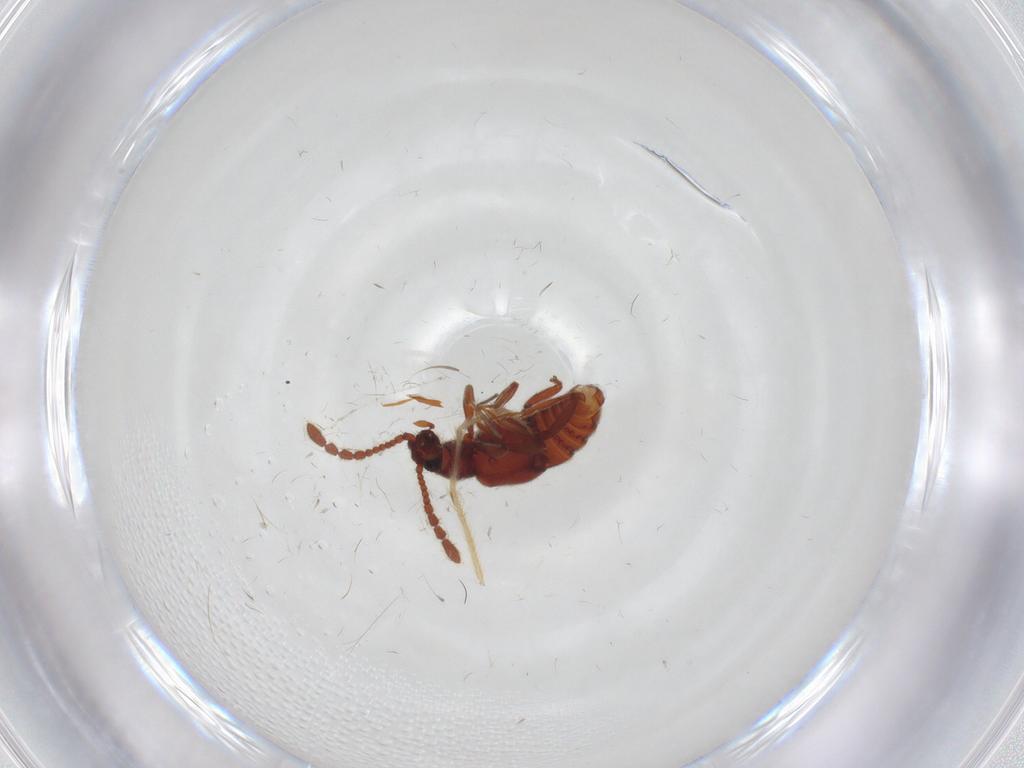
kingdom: Animalia
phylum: Arthropoda
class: Insecta
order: Coleoptera
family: Staphylinidae
